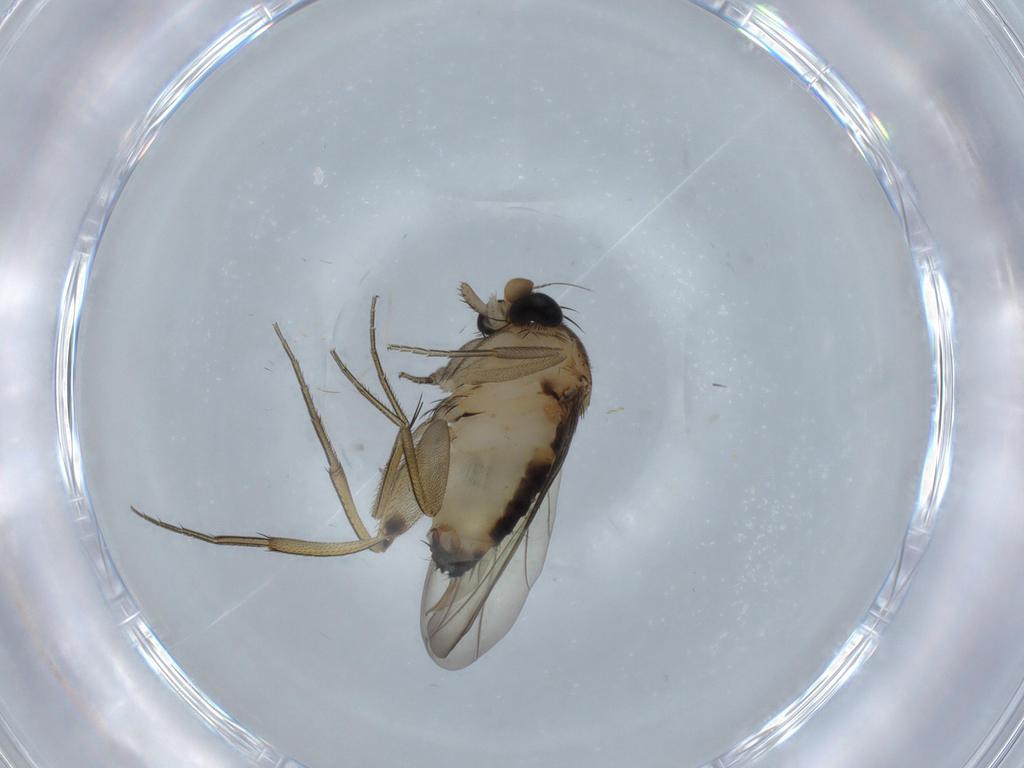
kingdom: Animalia
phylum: Arthropoda
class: Insecta
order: Diptera
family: Phoridae
